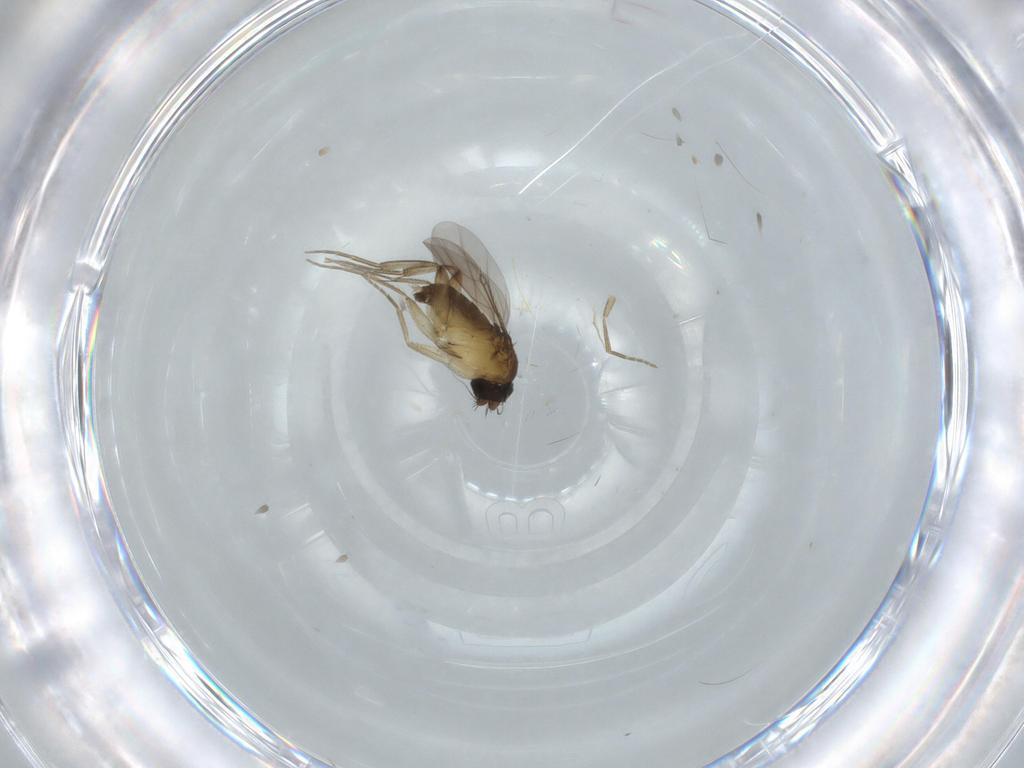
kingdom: Animalia
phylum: Arthropoda
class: Insecta
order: Diptera
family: Phoridae
